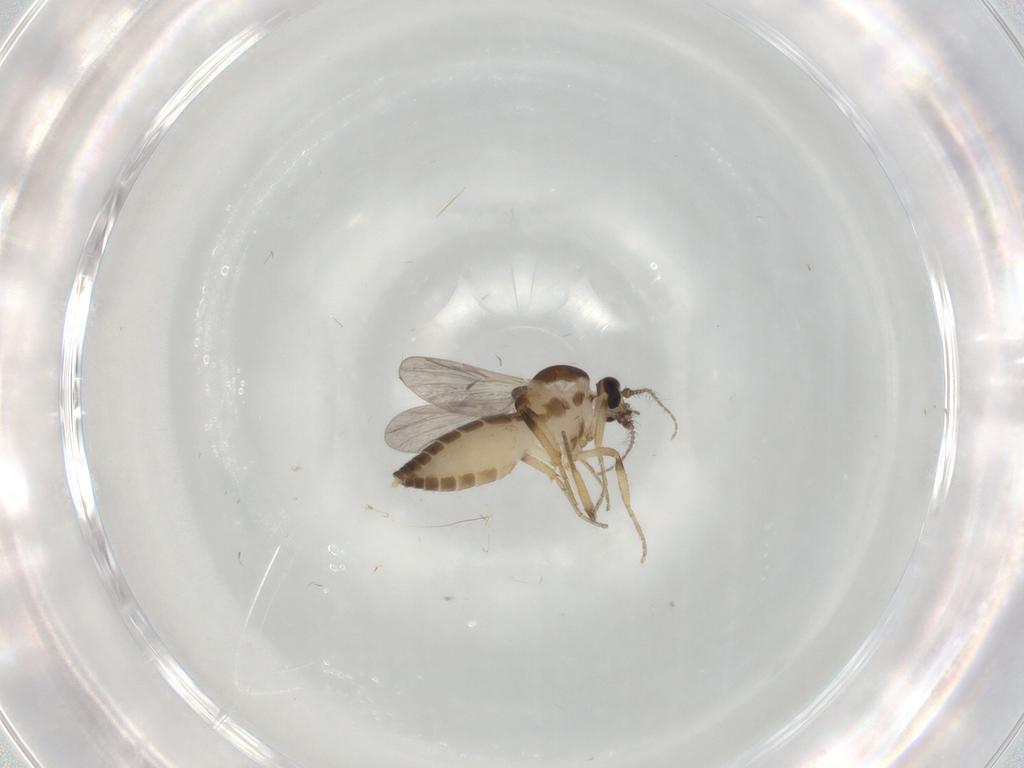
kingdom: Animalia
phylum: Arthropoda
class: Insecta
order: Diptera
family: Ceratopogonidae
